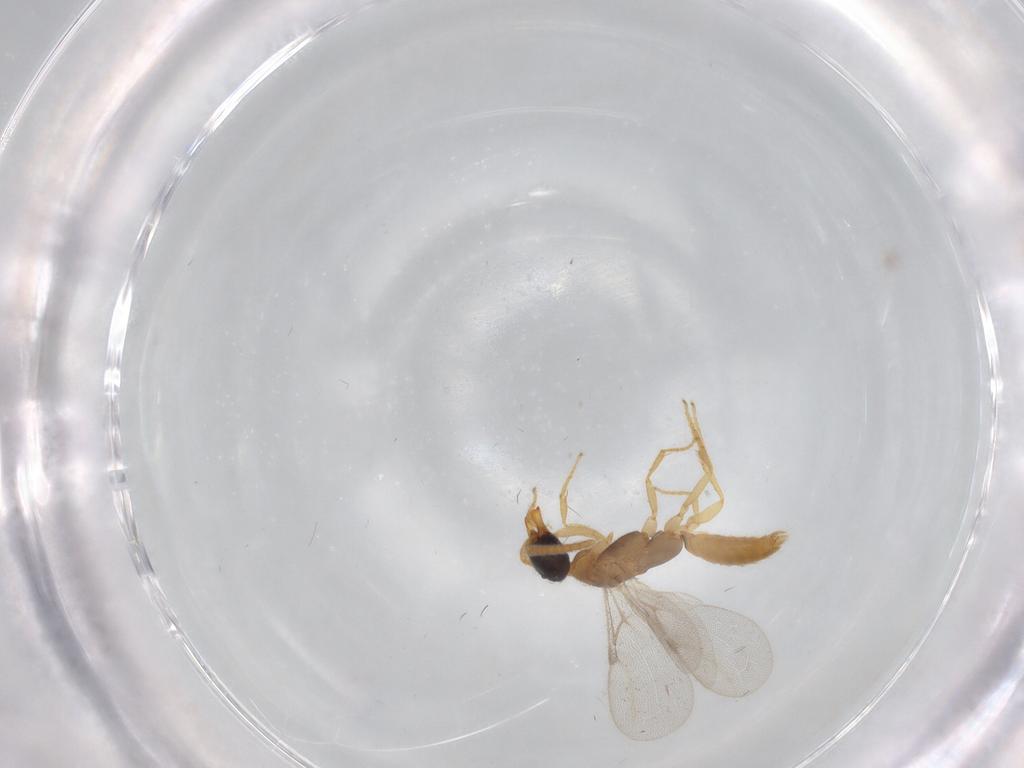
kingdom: Animalia
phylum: Arthropoda
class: Insecta
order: Hymenoptera
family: Bethylidae
